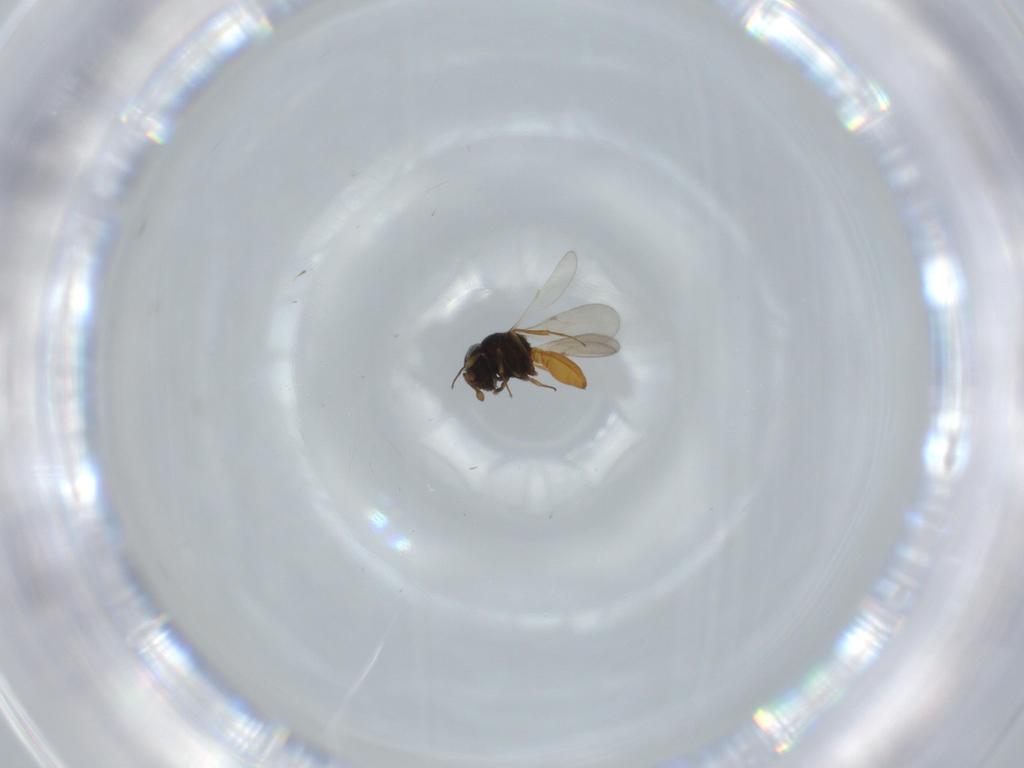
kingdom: Animalia
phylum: Arthropoda
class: Insecta
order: Hymenoptera
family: Scelionidae
